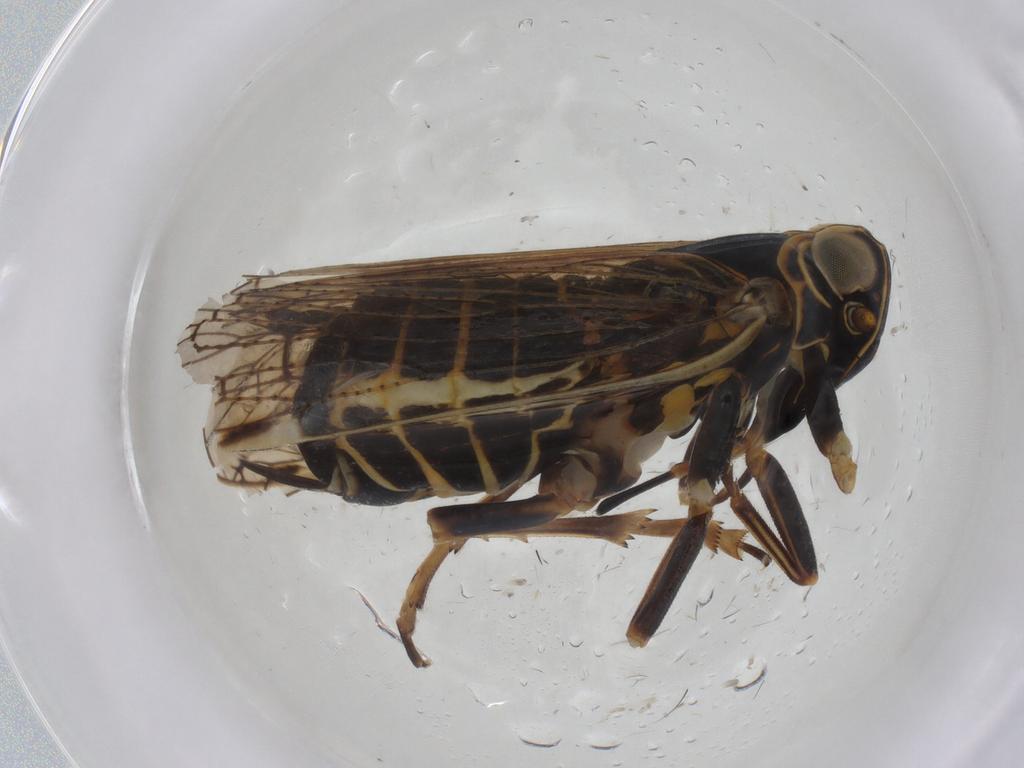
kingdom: Animalia
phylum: Arthropoda
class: Insecta
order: Hemiptera
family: Cixiidae
